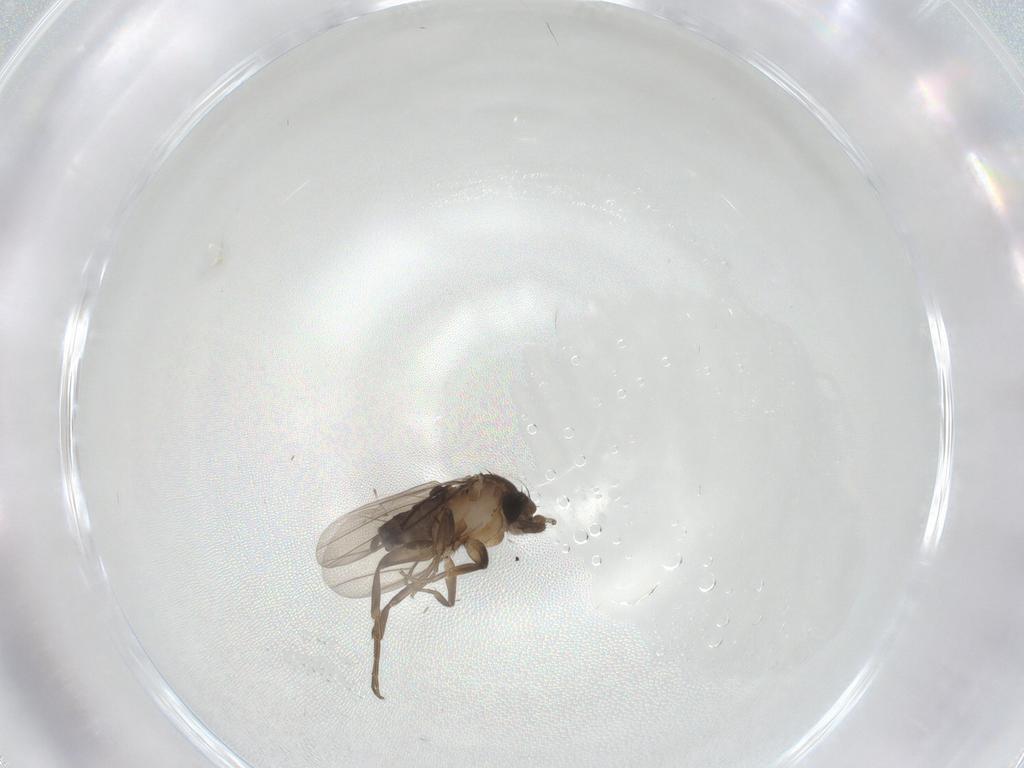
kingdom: Animalia
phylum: Arthropoda
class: Insecta
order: Diptera
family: Phoridae
